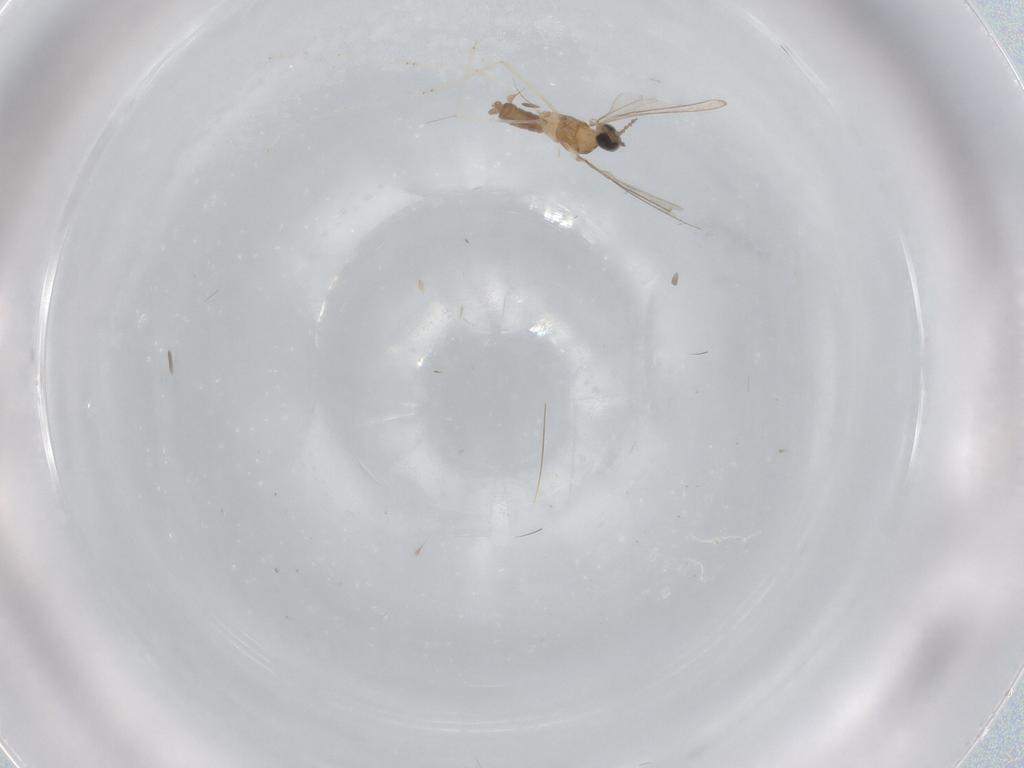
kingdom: Animalia
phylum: Arthropoda
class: Insecta
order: Diptera
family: Cecidomyiidae
